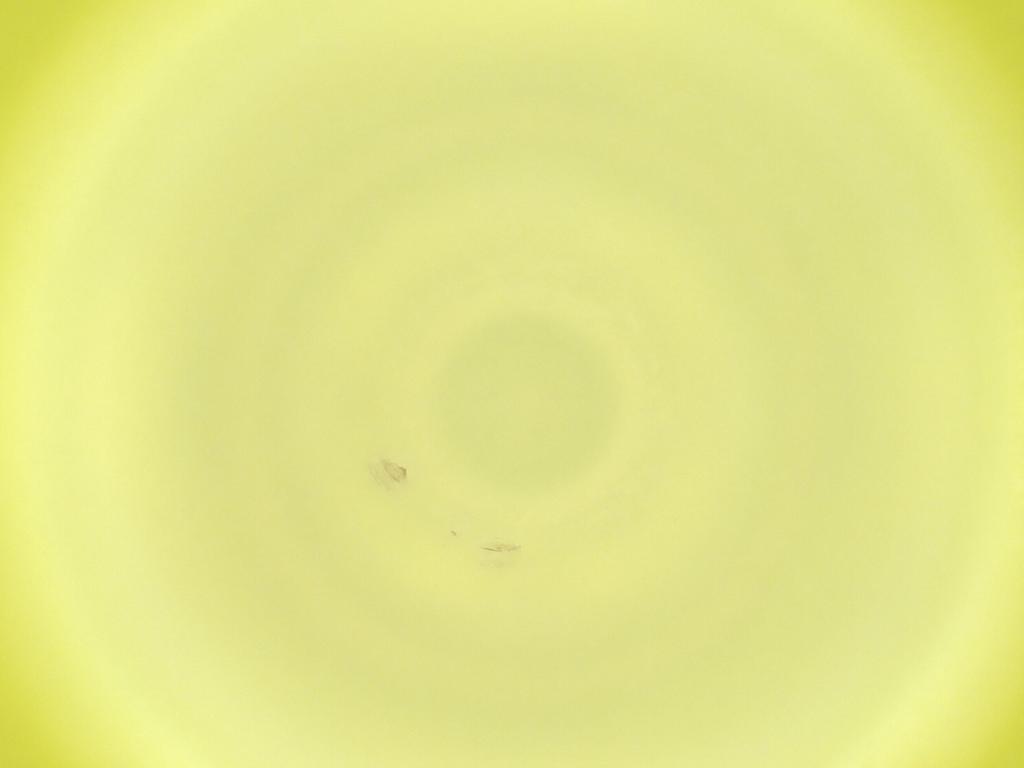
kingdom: Animalia
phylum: Arthropoda
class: Insecta
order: Diptera
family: Cecidomyiidae
